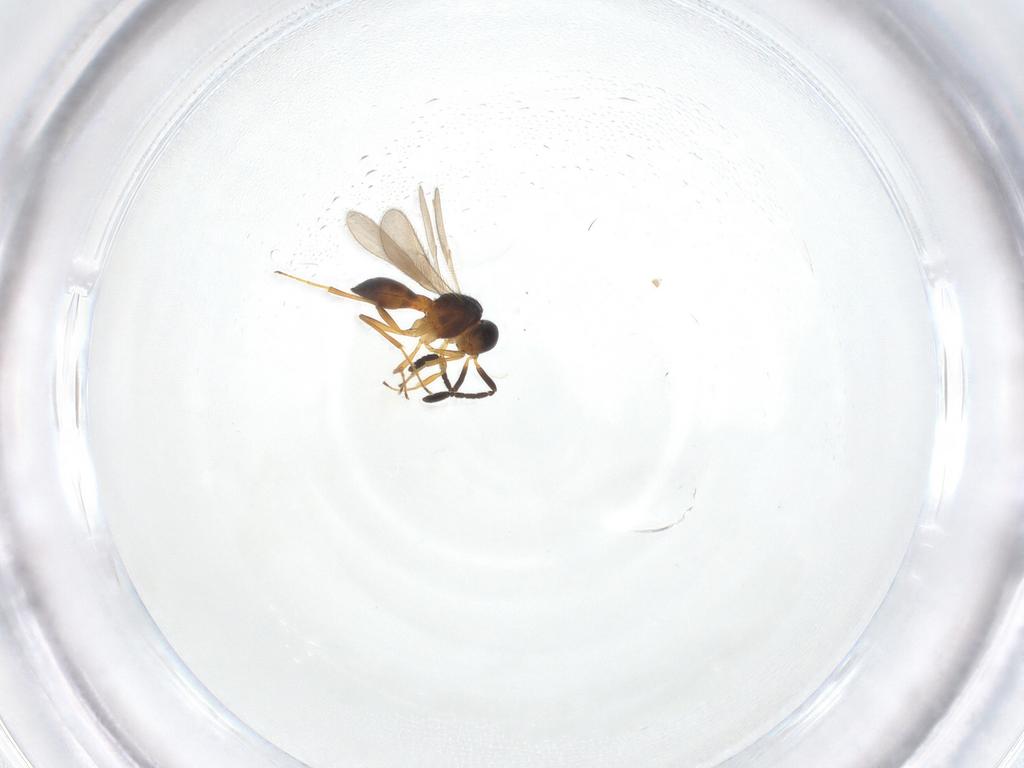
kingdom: Animalia
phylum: Arthropoda
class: Insecta
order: Hymenoptera
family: Scelionidae
